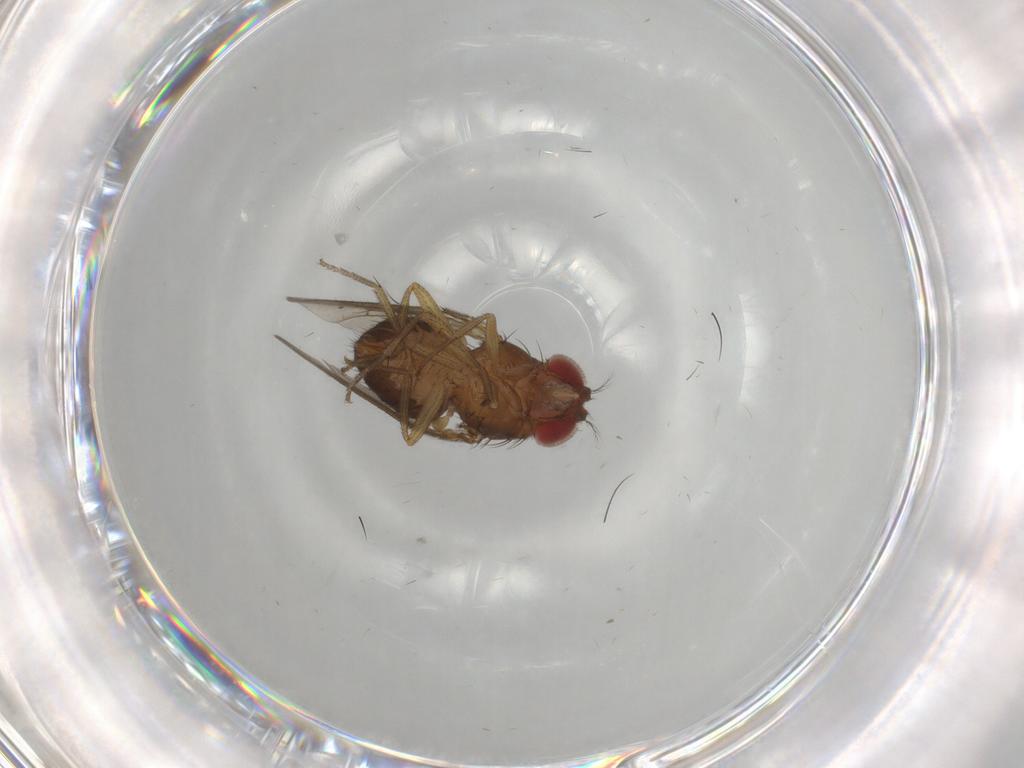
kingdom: Animalia
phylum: Arthropoda
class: Insecta
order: Diptera
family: Drosophilidae
